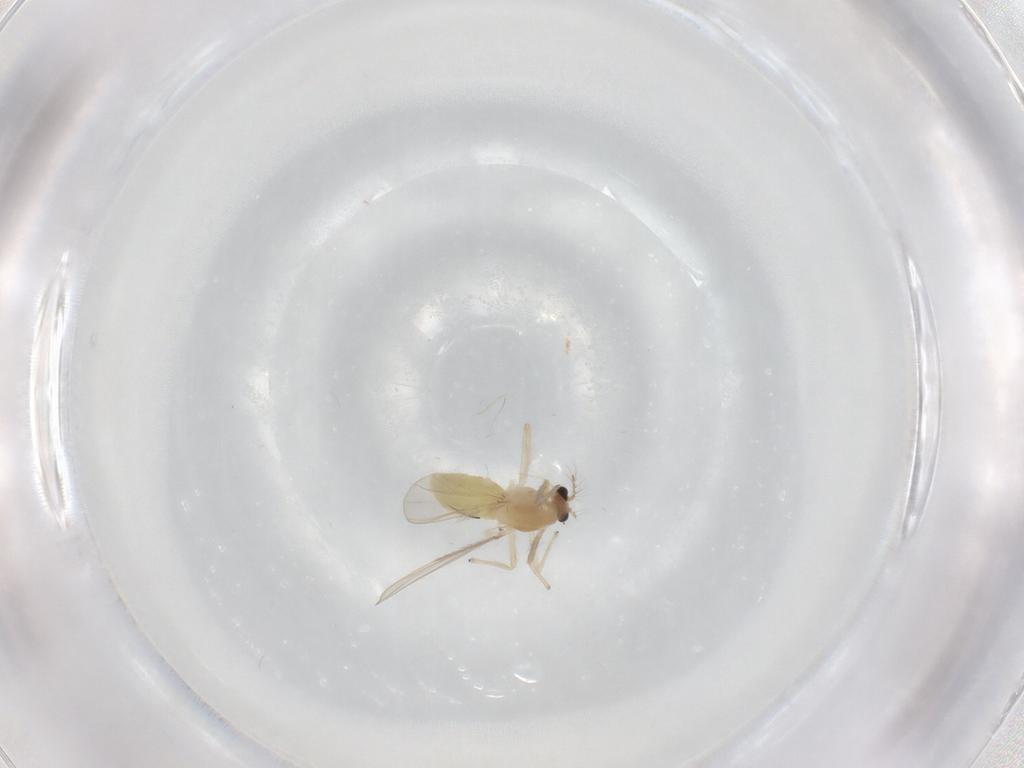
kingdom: Animalia
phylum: Arthropoda
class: Insecta
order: Diptera
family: Chironomidae
